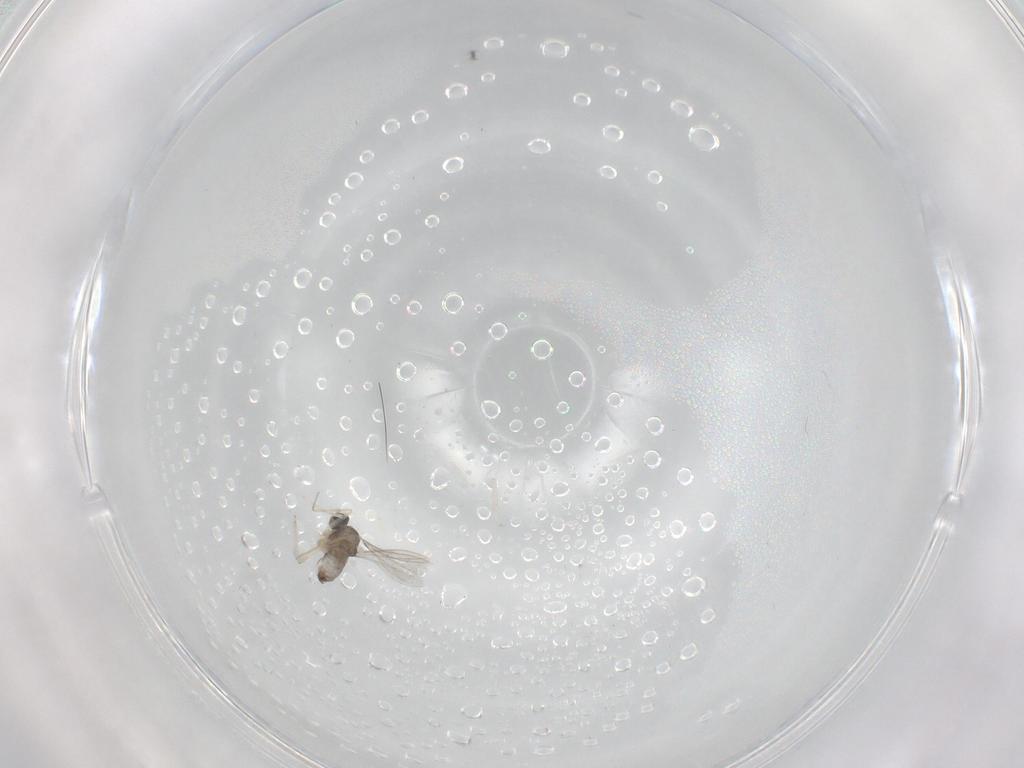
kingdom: Animalia
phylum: Arthropoda
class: Insecta
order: Diptera
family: Cecidomyiidae
